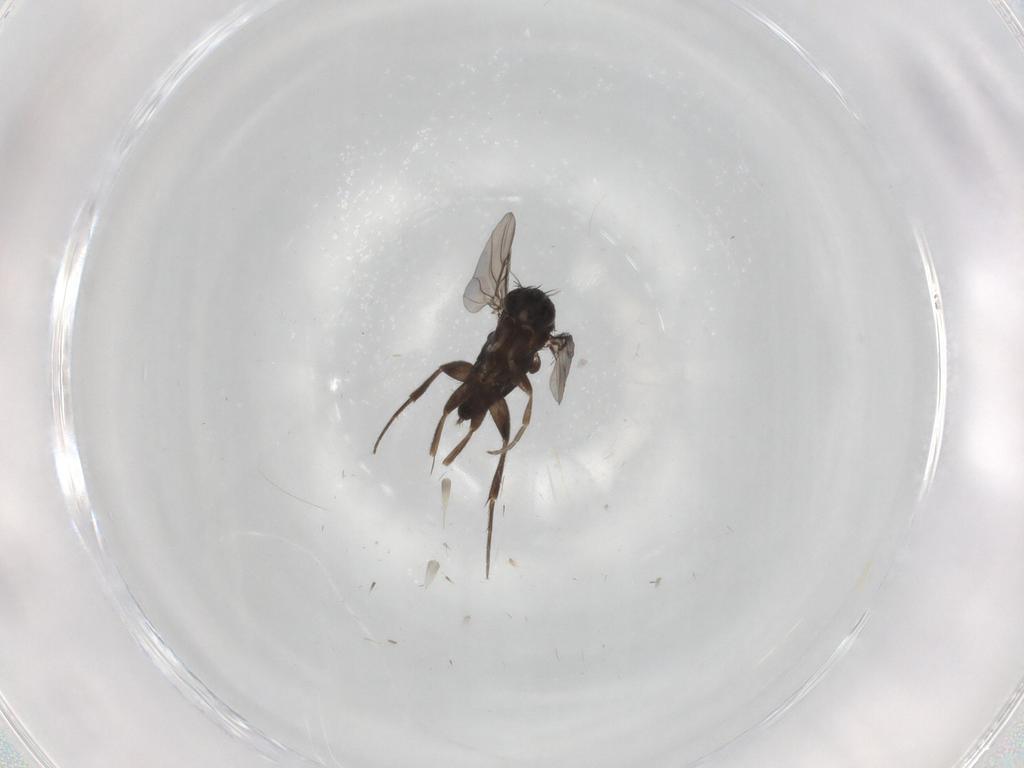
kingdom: Animalia
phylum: Arthropoda
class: Insecta
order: Diptera
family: Phoridae
